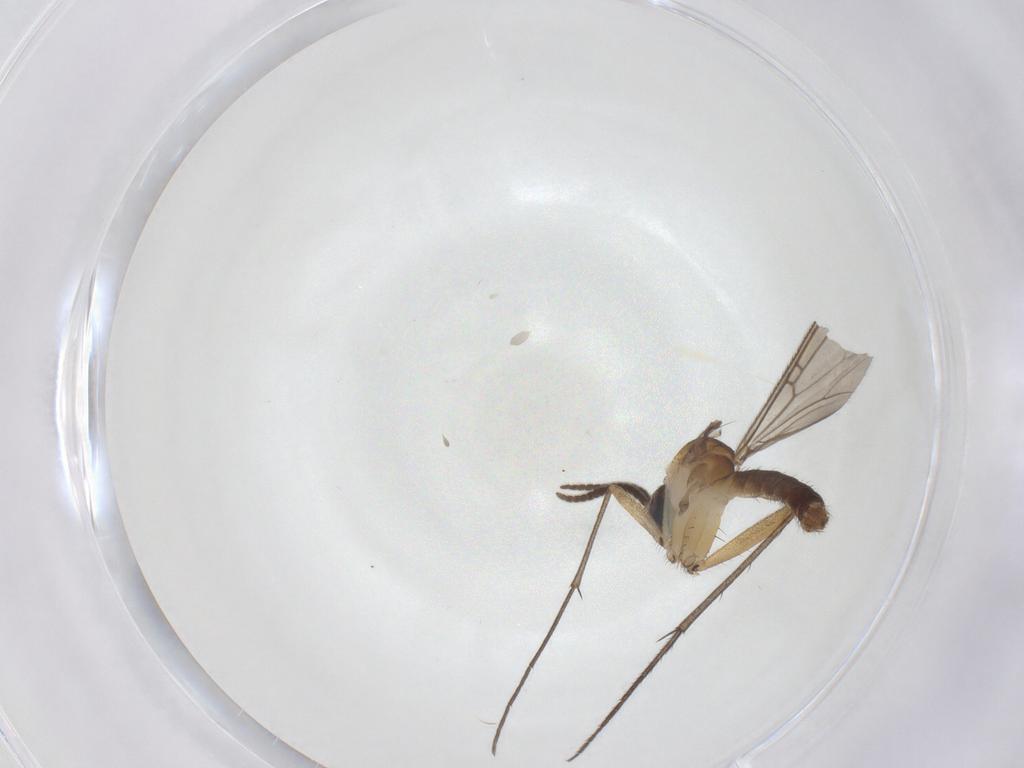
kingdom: Animalia
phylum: Arthropoda
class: Insecta
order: Diptera
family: Mycetophilidae
